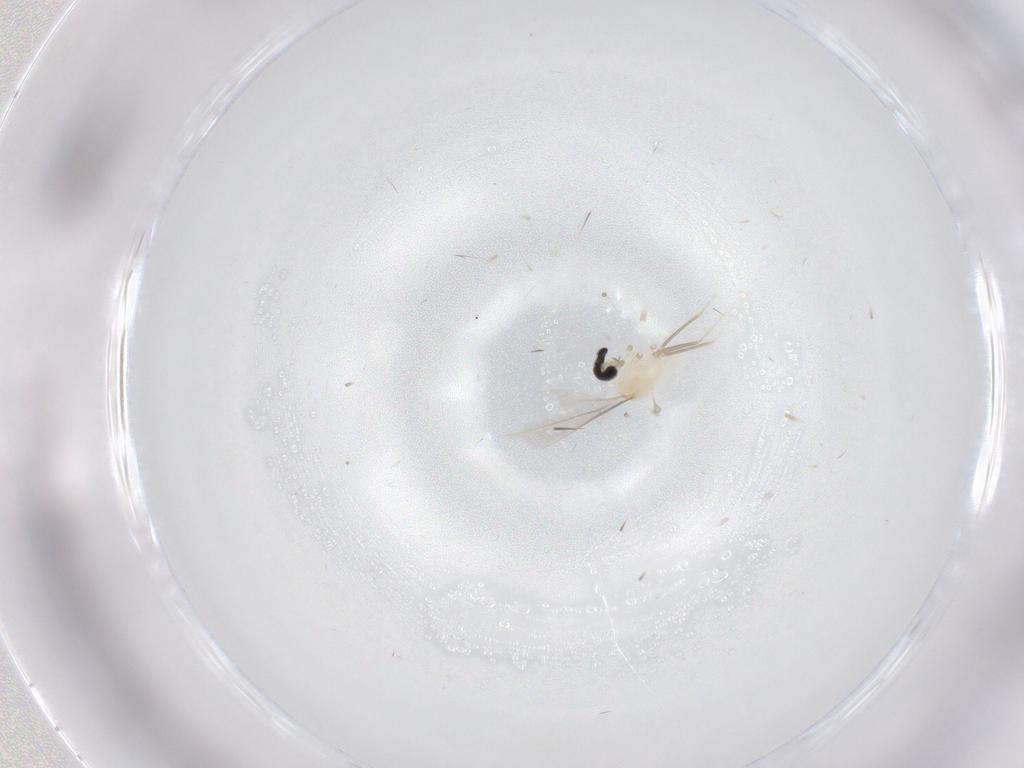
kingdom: Animalia
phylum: Arthropoda
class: Insecta
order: Diptera
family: Cecidomyiidae
